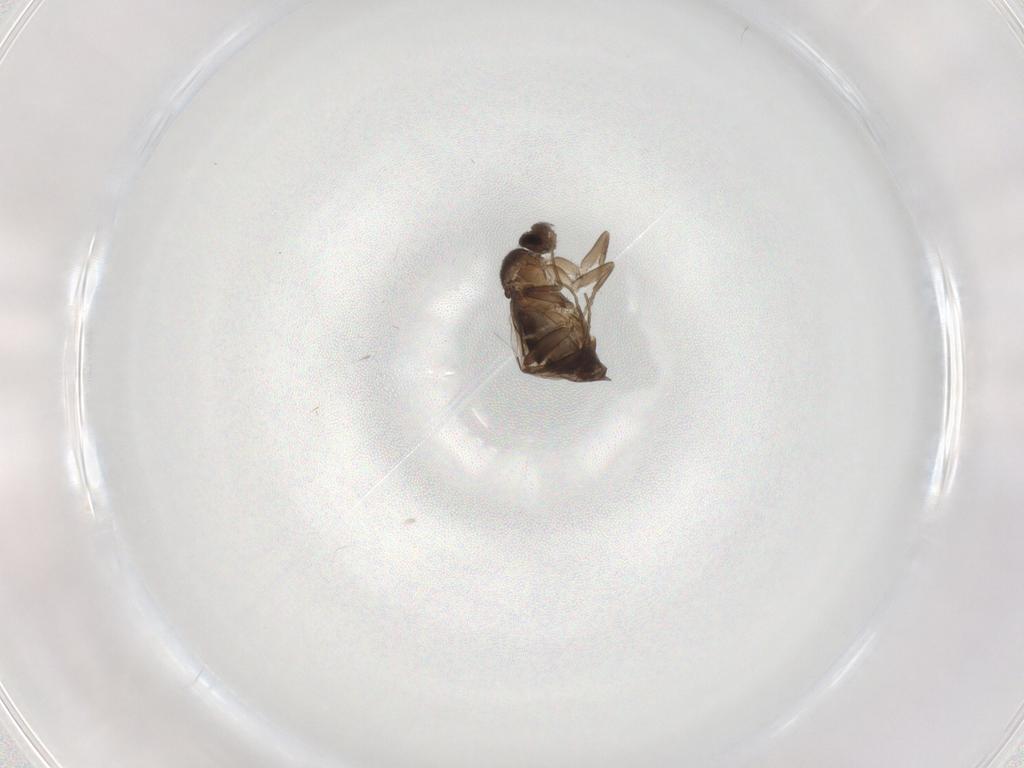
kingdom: Animalia
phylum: Arthropoda
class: Insecta
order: Diptera
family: Phoridae
